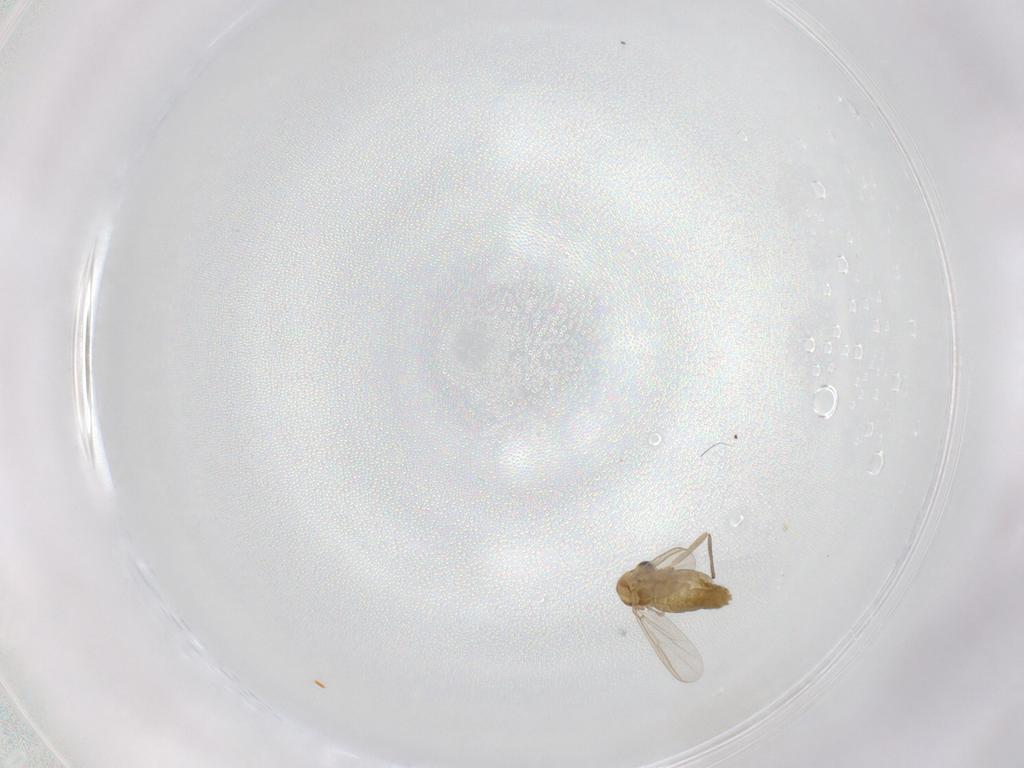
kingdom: Animalia
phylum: Arthropoda
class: Insecta
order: Diptera
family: Chironomidae
